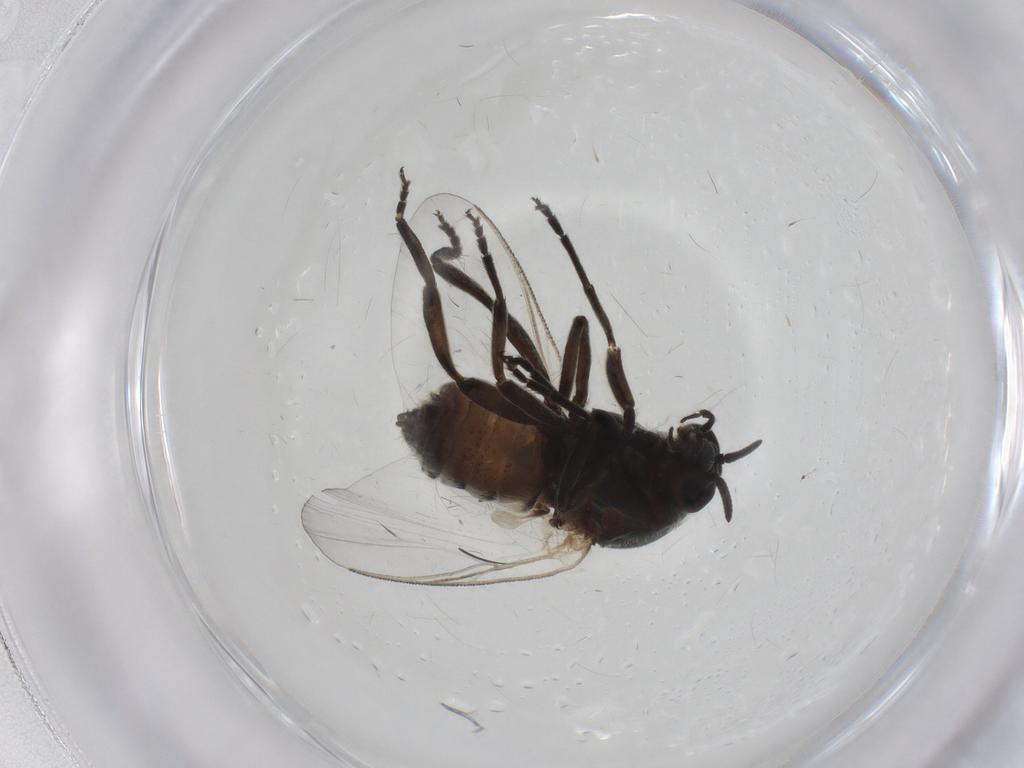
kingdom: Animalia
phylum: Arthropoda
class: Insecta
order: Diptera
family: Simuliidae
